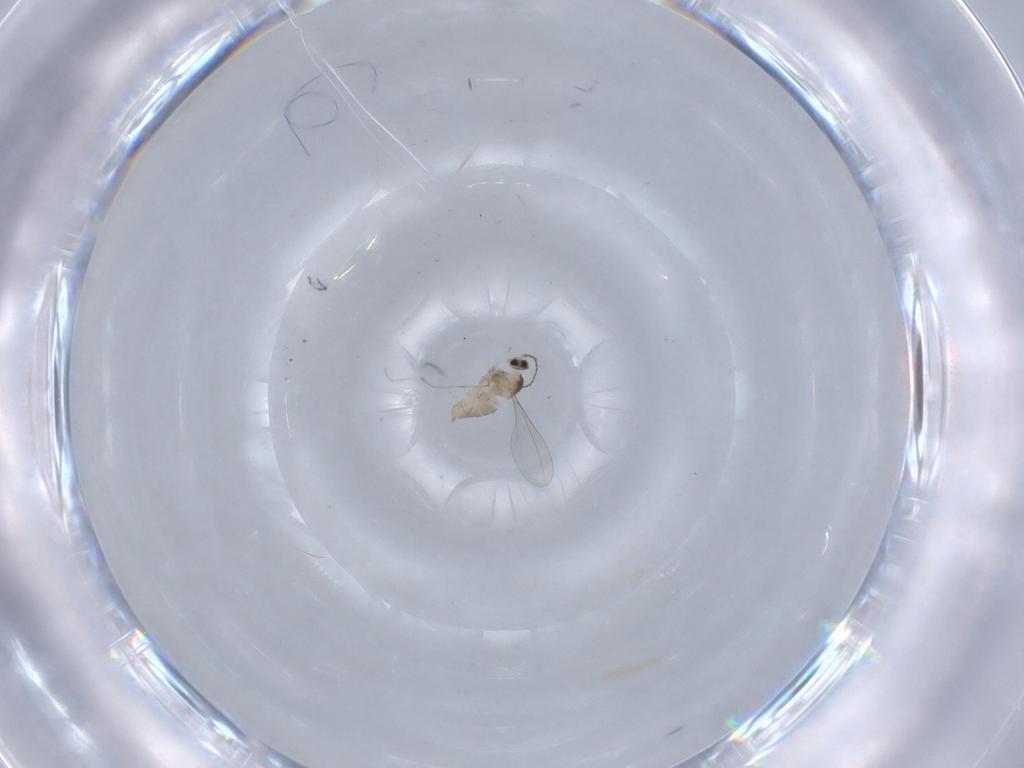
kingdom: Animalia
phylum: Arthropoda
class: Insecta
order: Diptera
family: Cecidomyiidae
